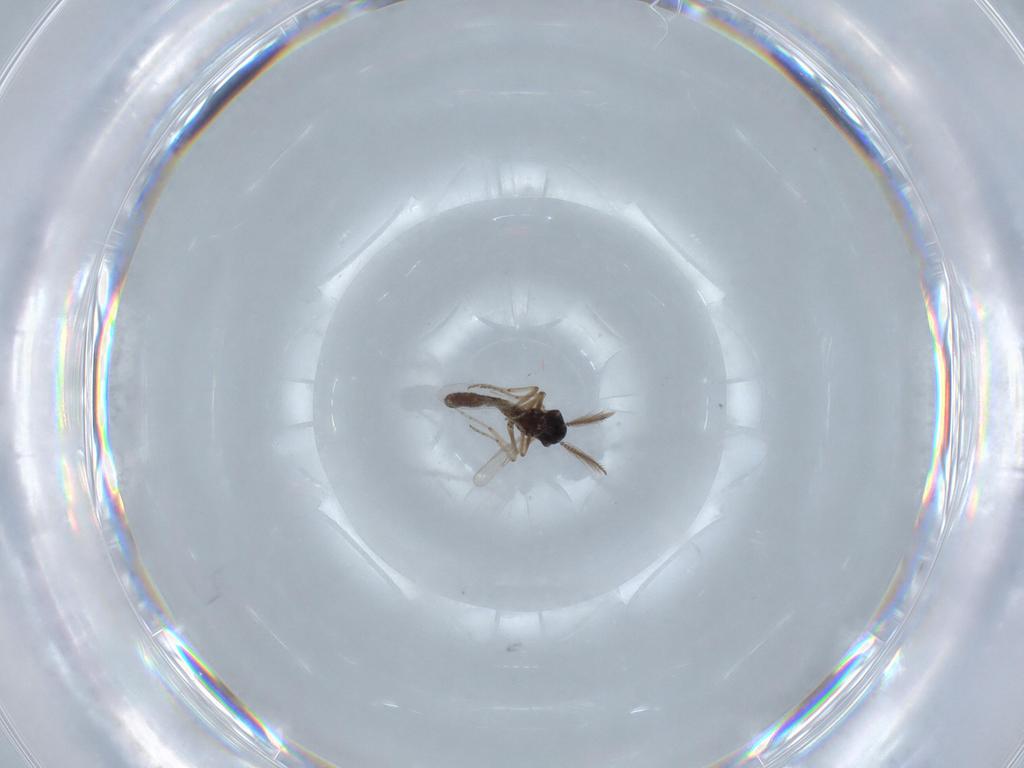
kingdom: Animalia
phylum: Arthropoda
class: Insecta
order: Diptera
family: Ceratopogonidae
